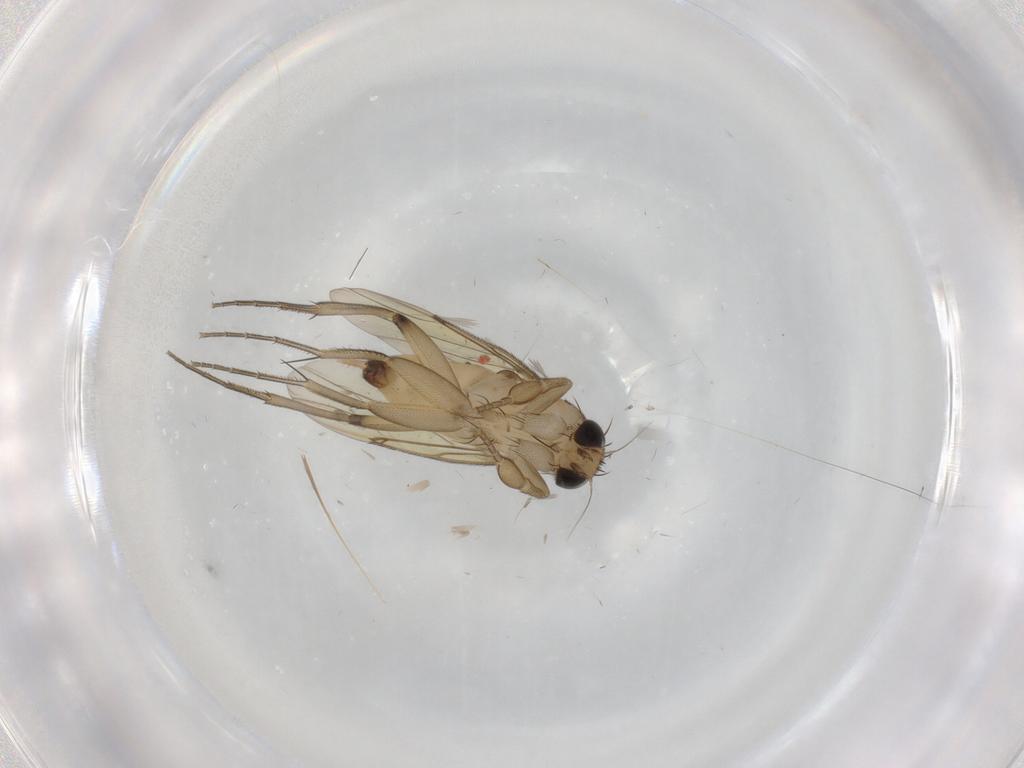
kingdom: Animalia
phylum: Arthropoda
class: Insecta
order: Diptera
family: Phoridae
